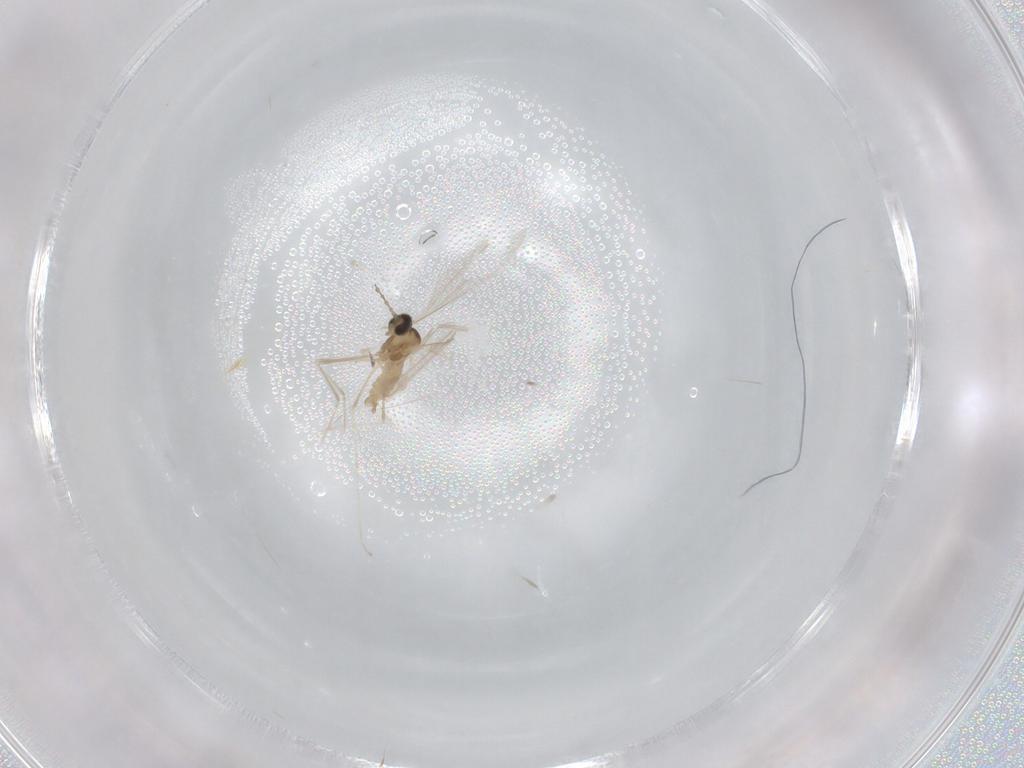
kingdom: Animalia
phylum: Arthropoda
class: Insecta
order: Diptera
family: Cecidomyiidae
